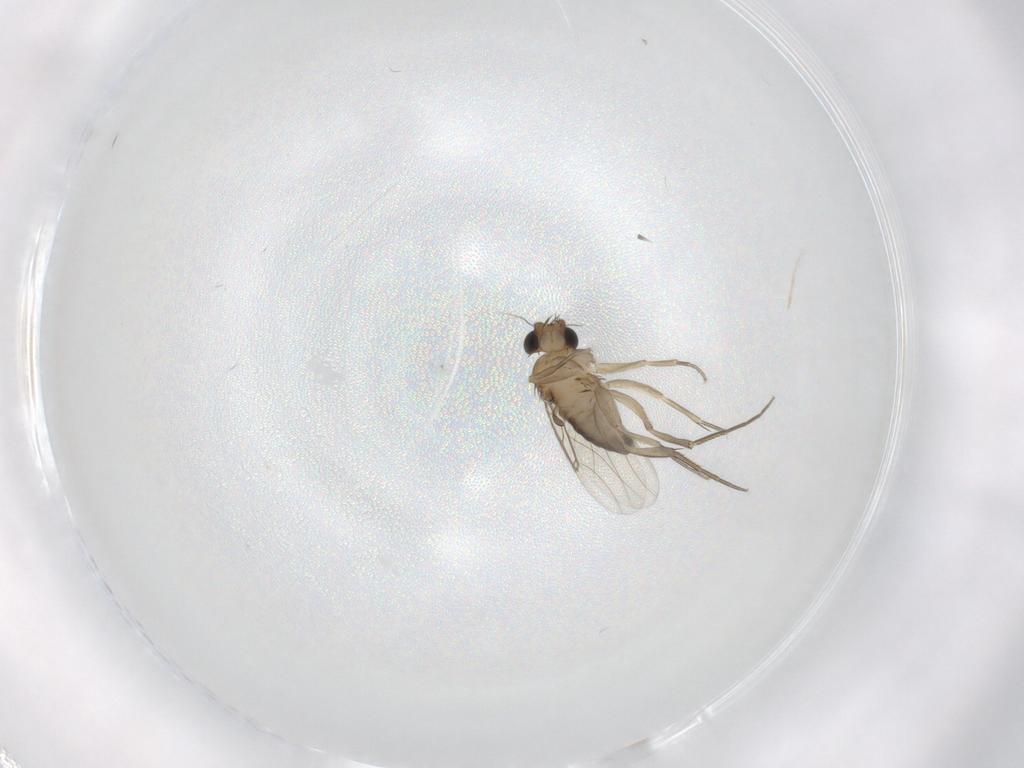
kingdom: Animalia
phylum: Arthropoda
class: Insecta
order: Diptera
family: Phoridae
